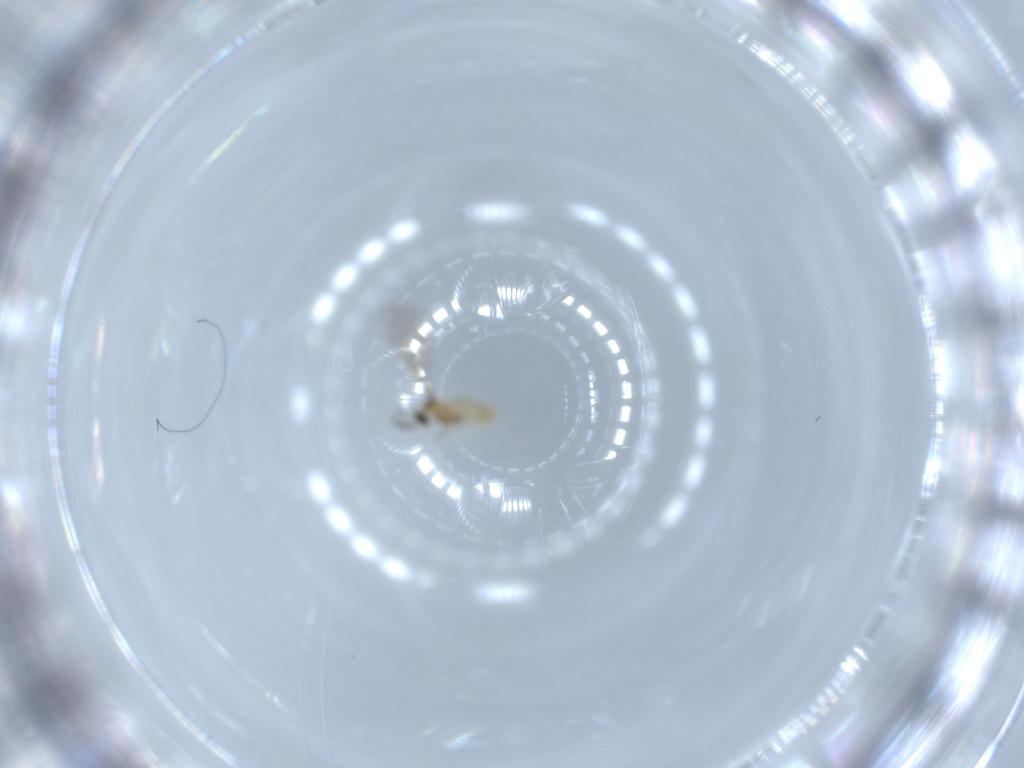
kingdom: Animalia
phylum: Arthropoda
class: Insecta
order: Diptera
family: Cecidomyiidae
